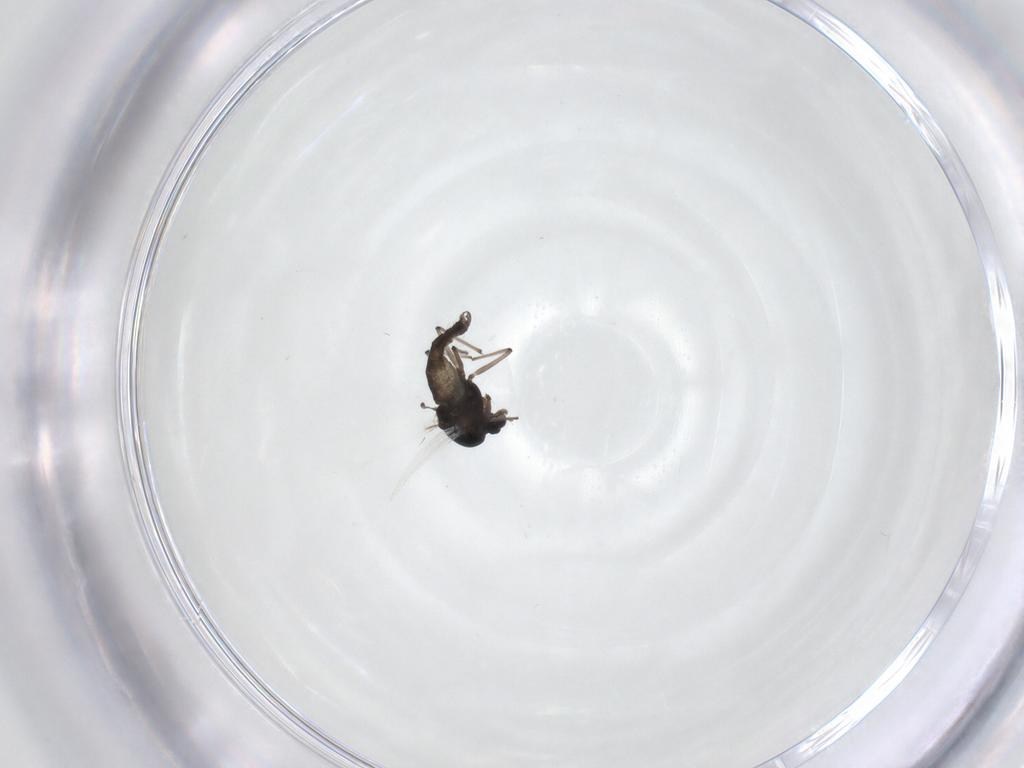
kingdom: Animalia
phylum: Arthropoda
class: Insecta
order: Diptera
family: Chironomidae
